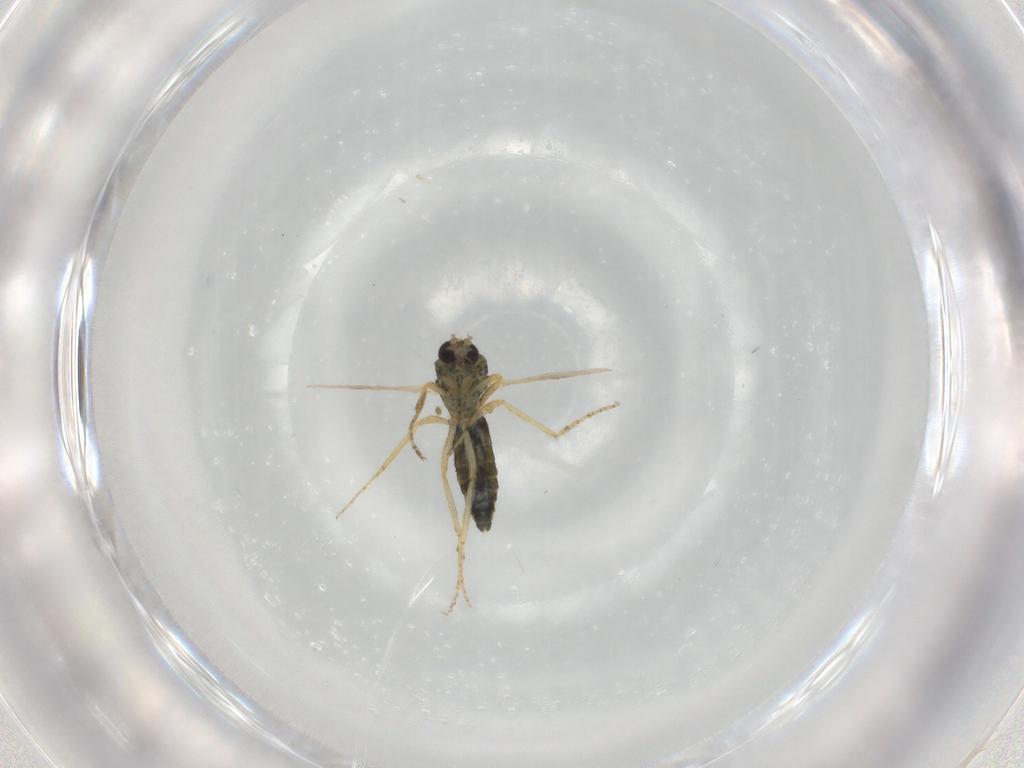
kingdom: Animalia
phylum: Arthropoda
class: Insecta
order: Diptera
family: Ceratopogonidae
